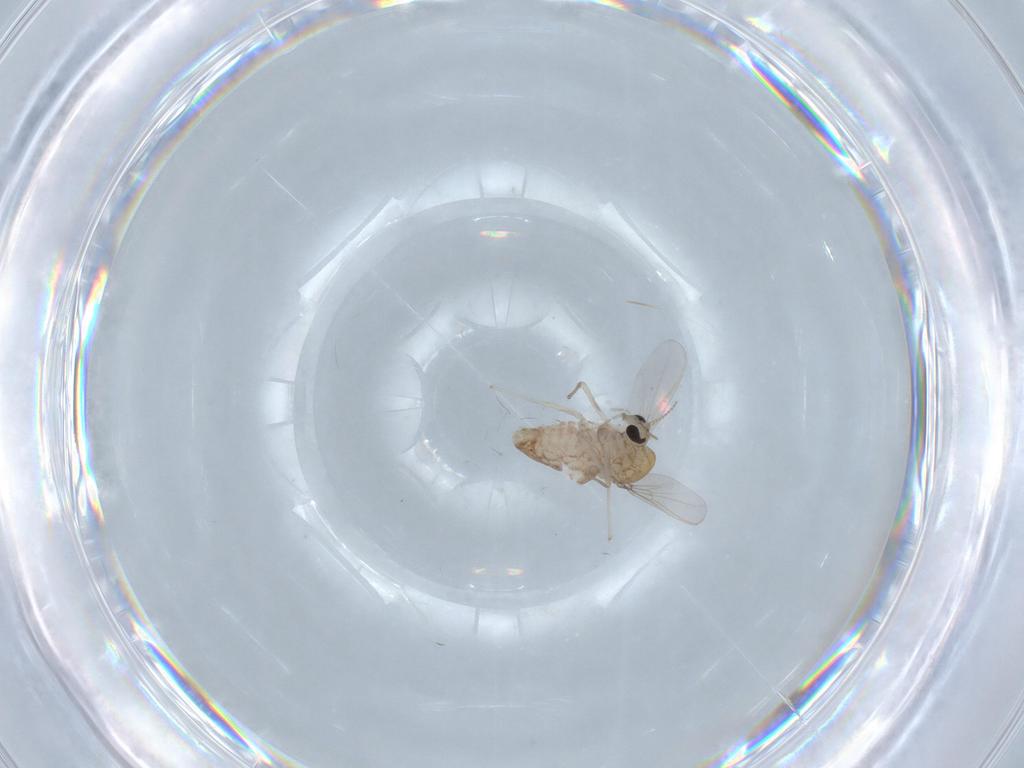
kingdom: Animalia
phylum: Arthropoda
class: Insecta
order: Diptera
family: Chironomidae
